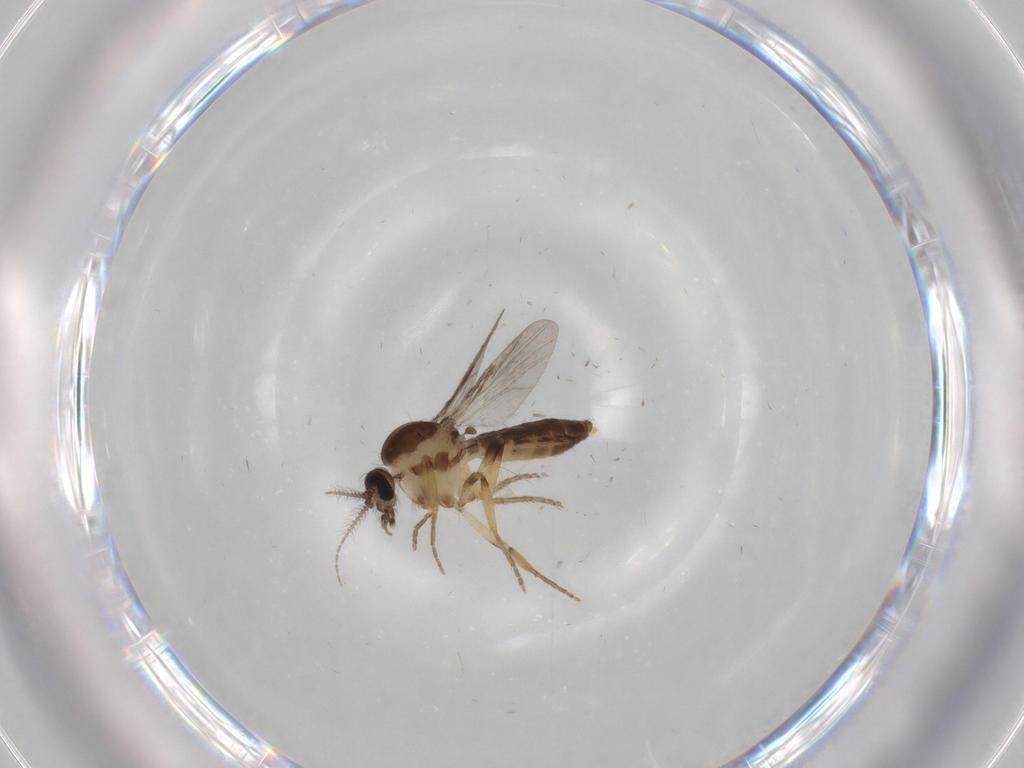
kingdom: Animalia
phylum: Arthropoda
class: Insecta
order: Diptera
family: Ceratopogonidae
